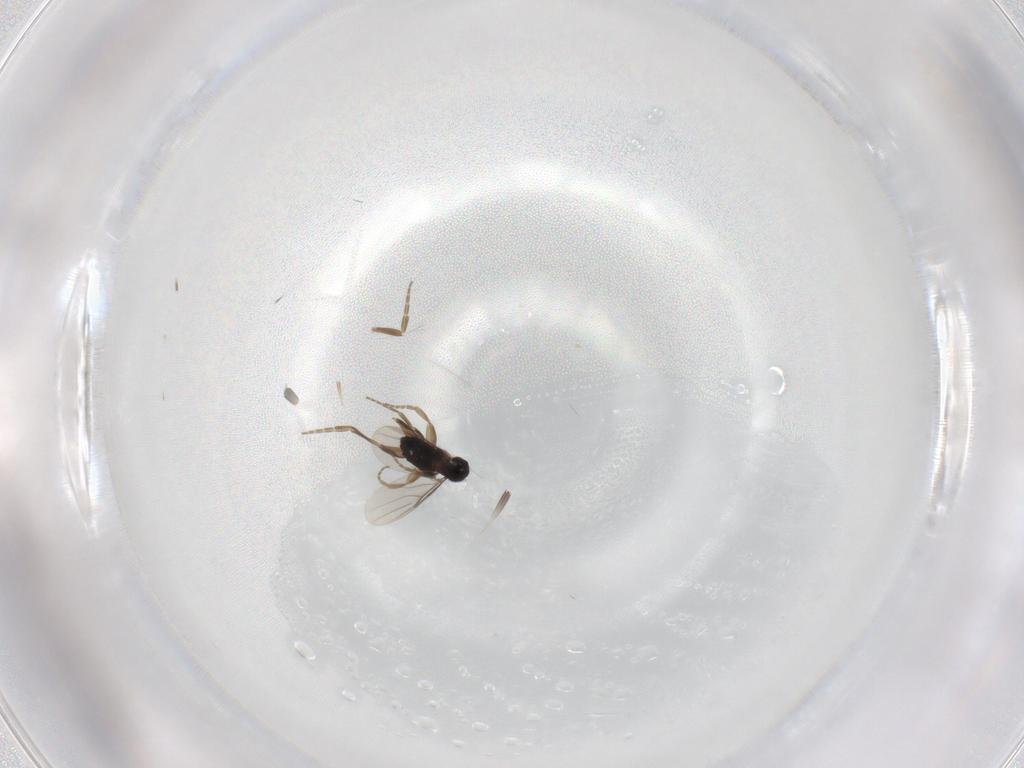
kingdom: Animalia
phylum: Arthropoda
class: Insecta
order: Diptera
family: Phoridae
